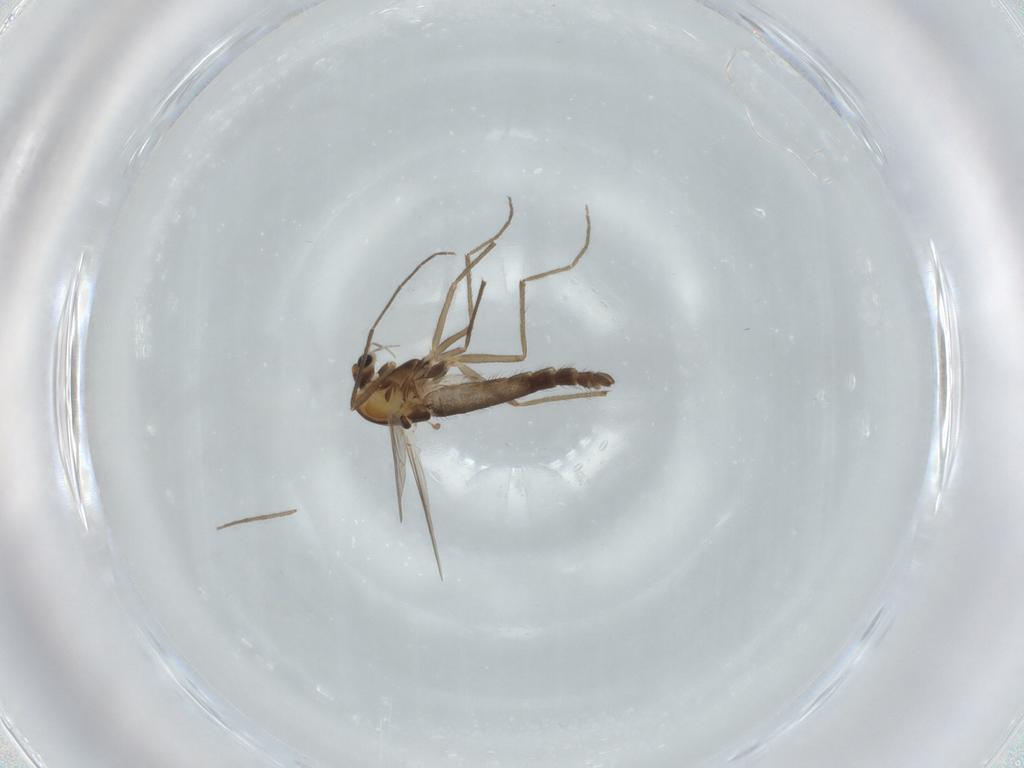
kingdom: Animalia
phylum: Arthropoda
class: Insecta
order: Diptera
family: Chironomidae
